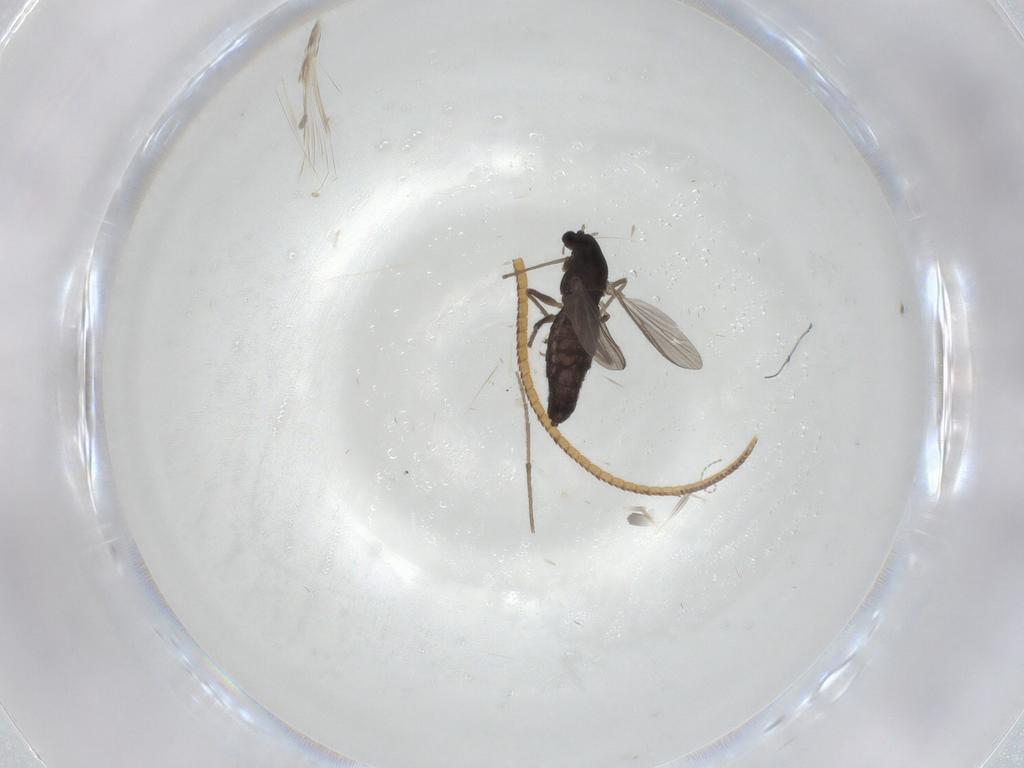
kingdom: Animalia
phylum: Arthropoda
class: Insecta
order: Diptera
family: Chironomidae
